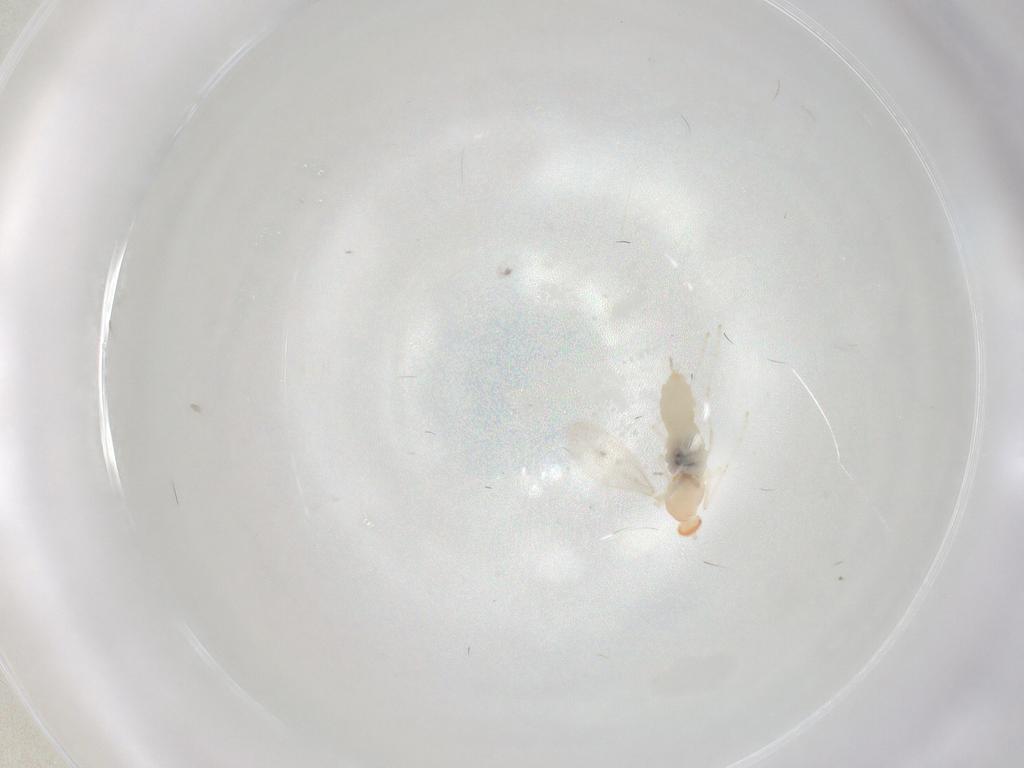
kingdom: Animalia
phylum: Arthropoda
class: Insecta
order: Diptera
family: Cecidomyiidae
